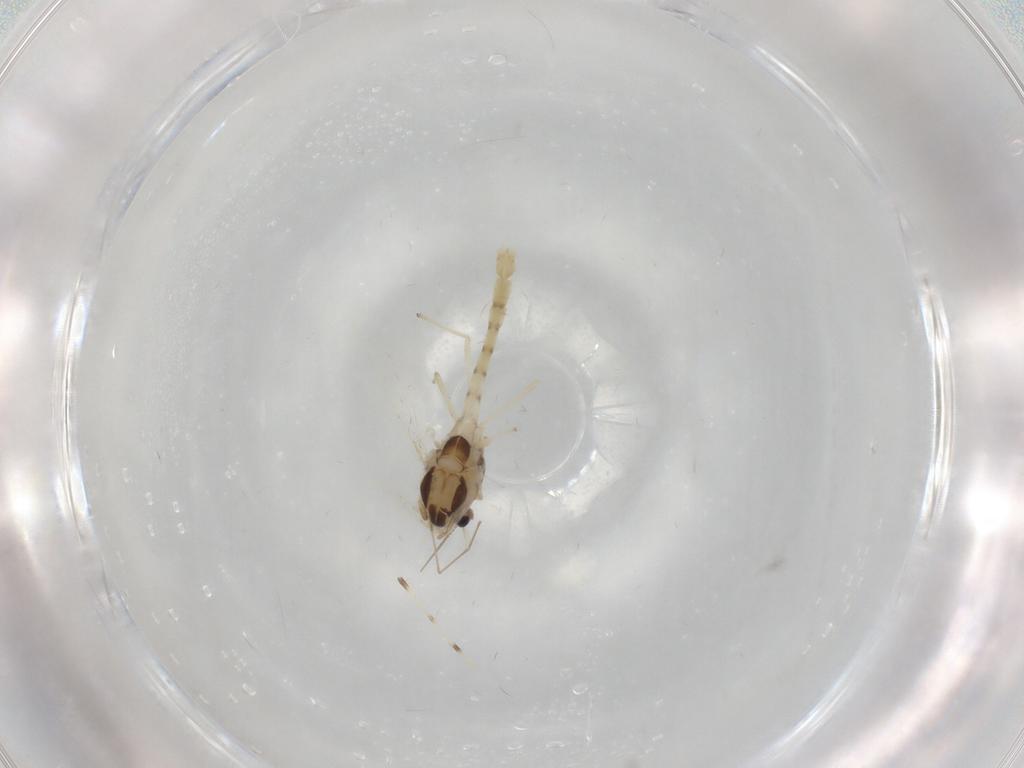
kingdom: Animalia
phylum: Arthropoda
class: Insecta
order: Diptera
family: Chironomidae
